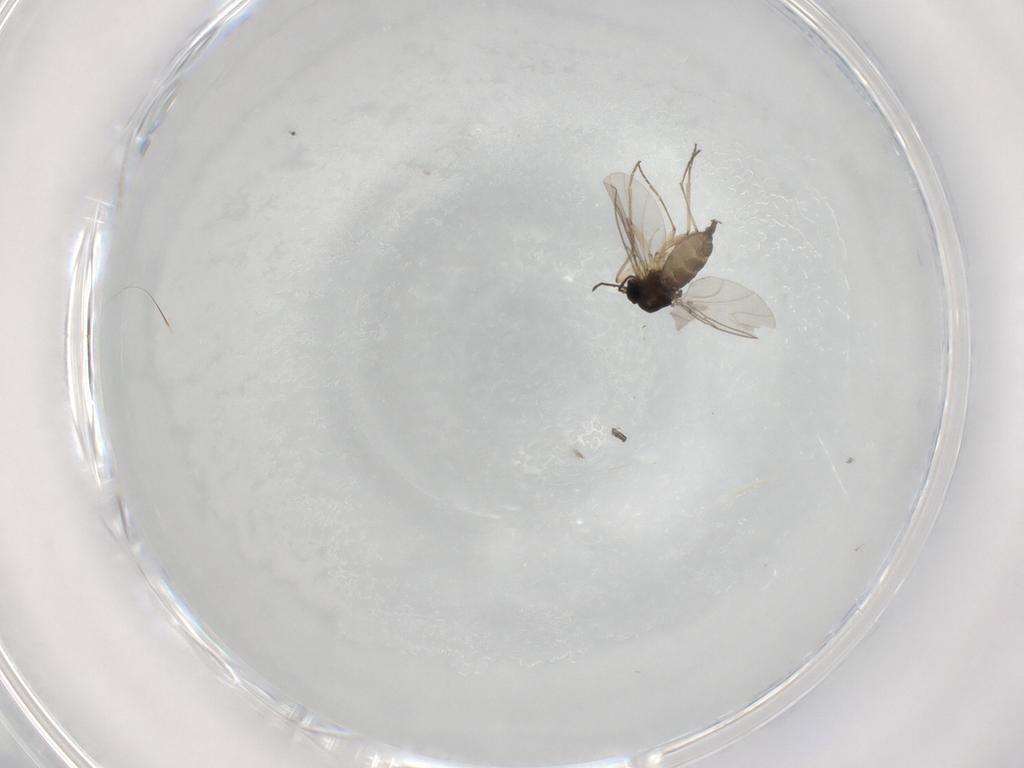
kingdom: Animalia
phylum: Arthropoda
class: Insecta
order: Diptera
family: Sciaridae
